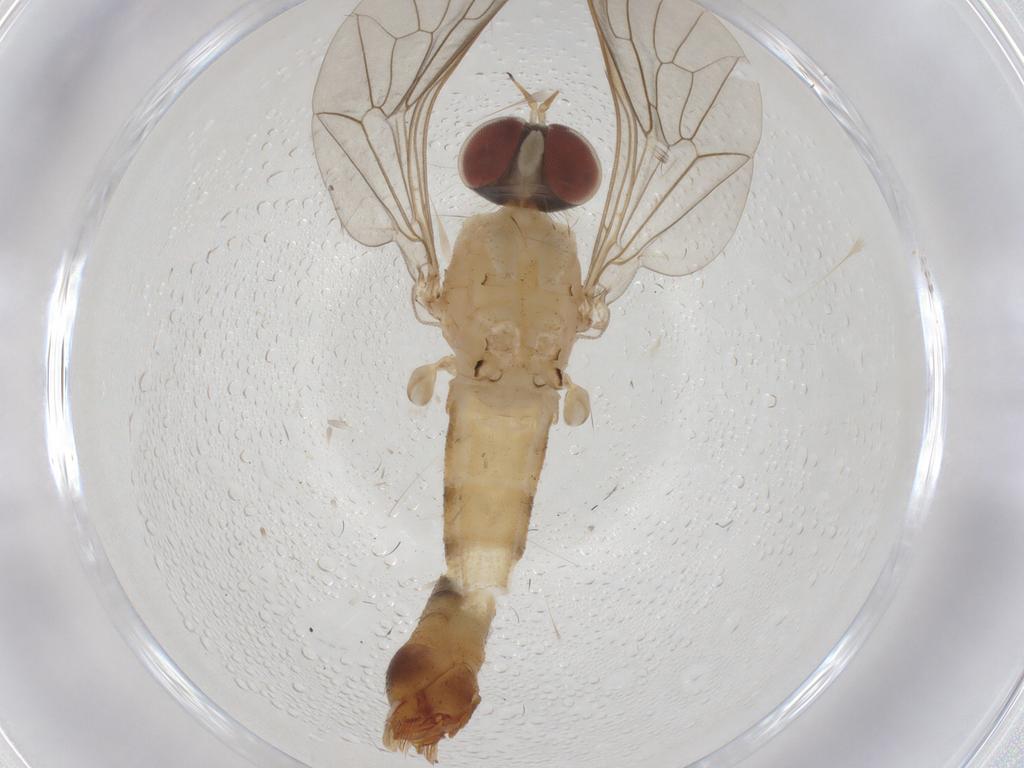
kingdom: Animalia
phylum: Arthropoda
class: Insecta
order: Diptera
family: Apsilocephalidae
